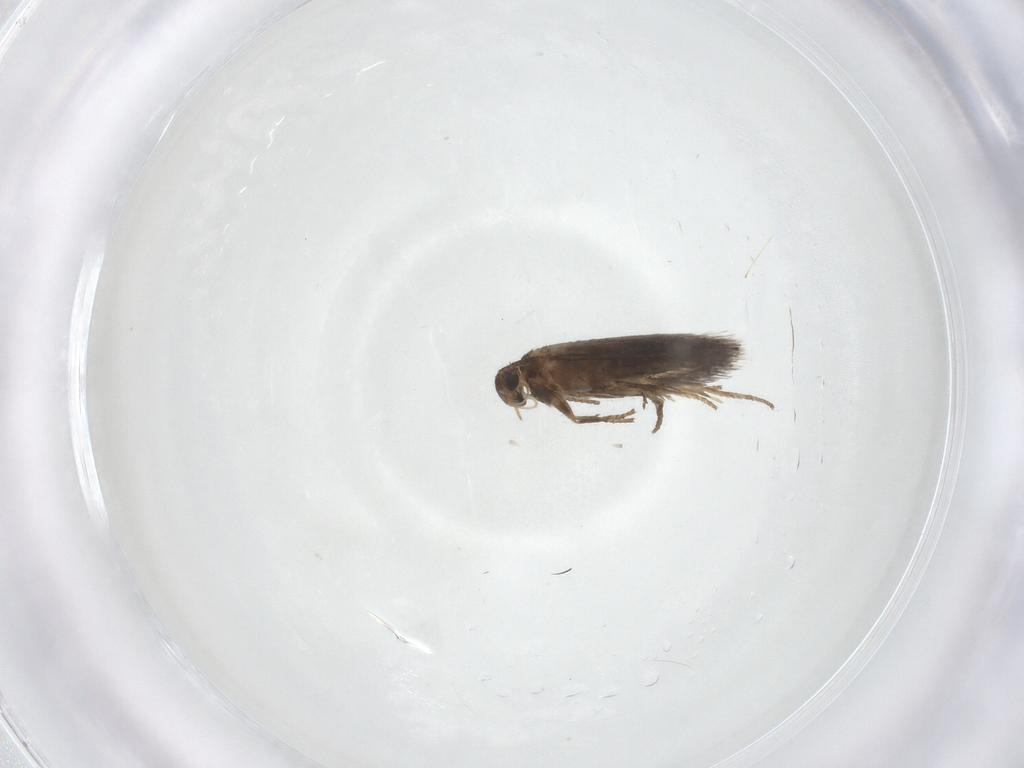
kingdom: Animalia
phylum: Arthropoda
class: Insecta
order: Lepidoptera
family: Heliozelidae
